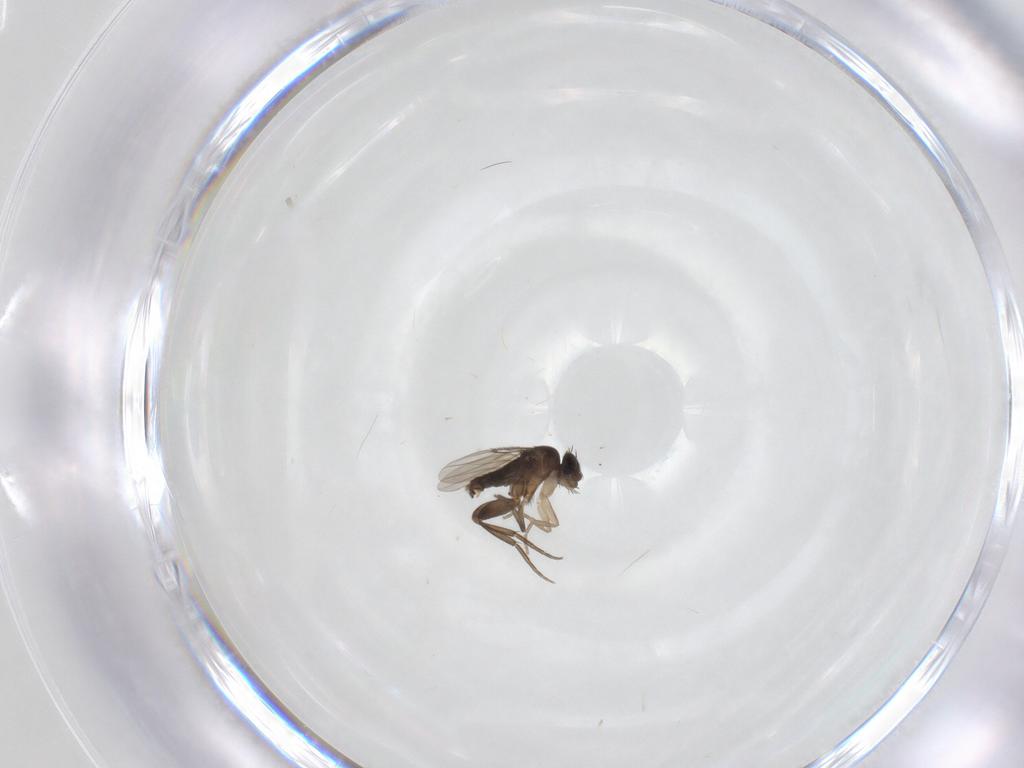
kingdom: Animalia
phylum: Arthropoda
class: Insecta
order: Diptera
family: Phoridae
